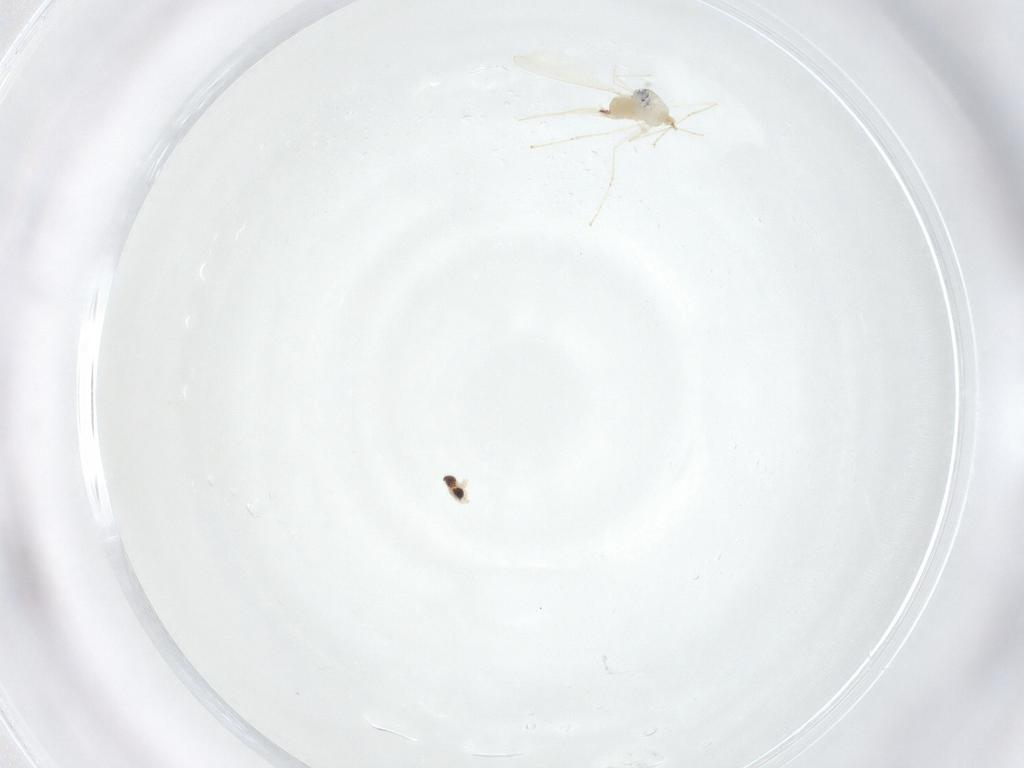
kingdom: Animalia
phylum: Arthropoda
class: Insecta
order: Diptera
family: Cecidomyiidae
